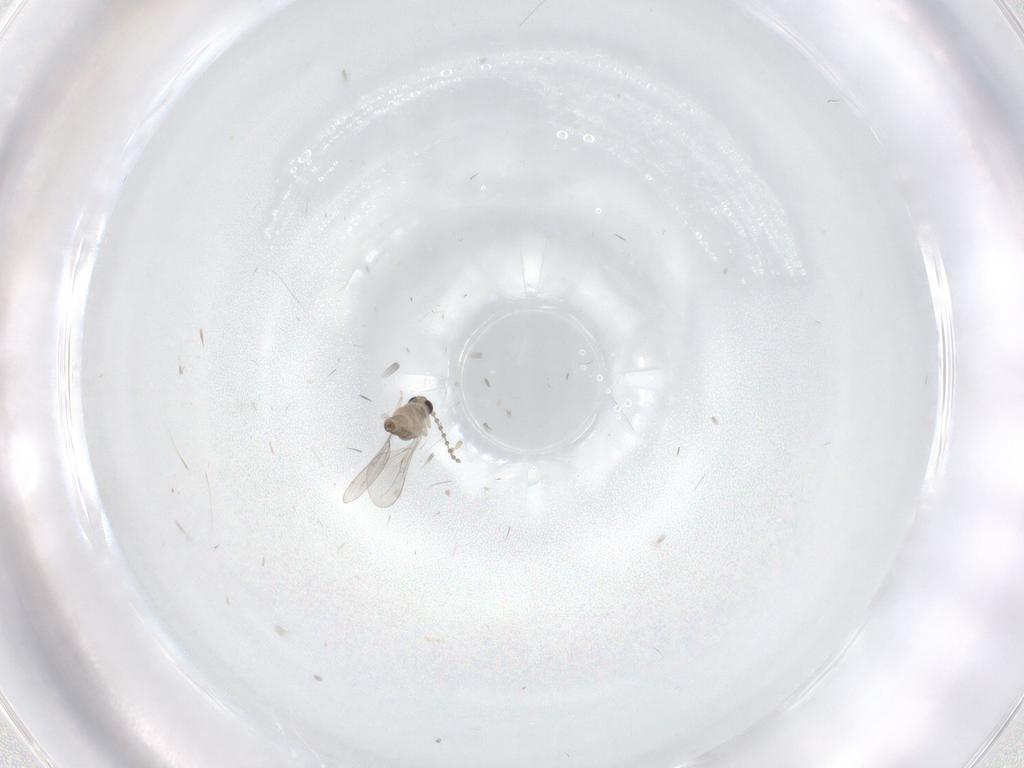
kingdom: Animalia
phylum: Arthropoda
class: Insecta
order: Diptera
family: Cecidomyiidae
